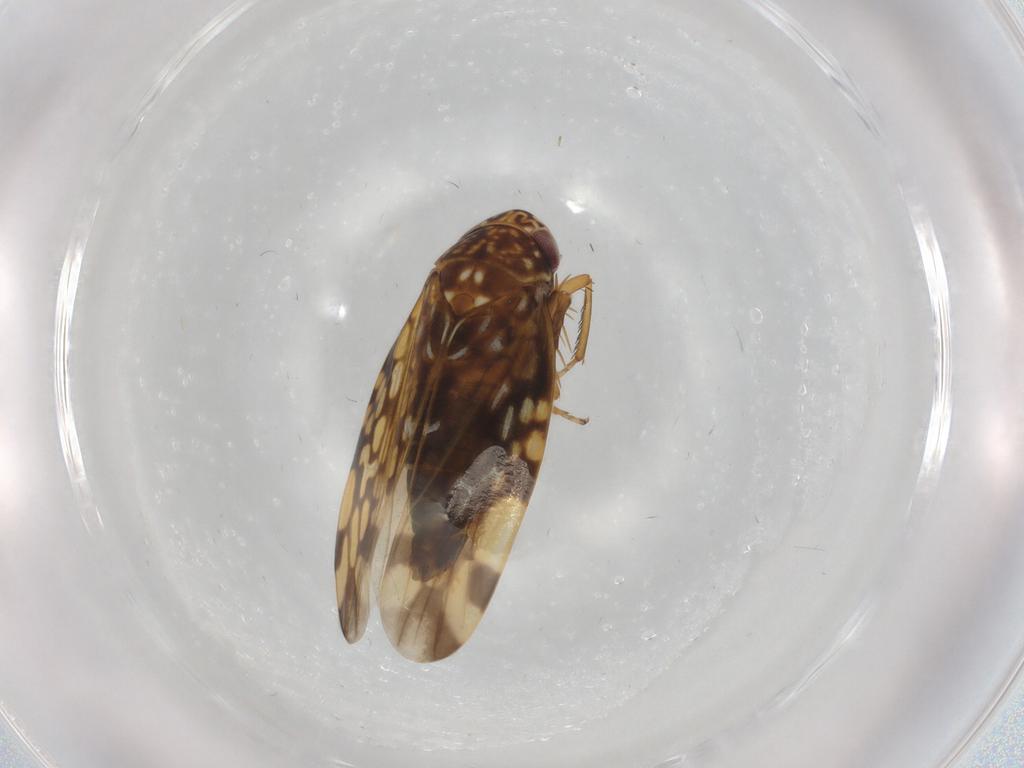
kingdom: Animalia
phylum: Arthropoda
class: Insecta
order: Hemiptera
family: Cicadellidae
